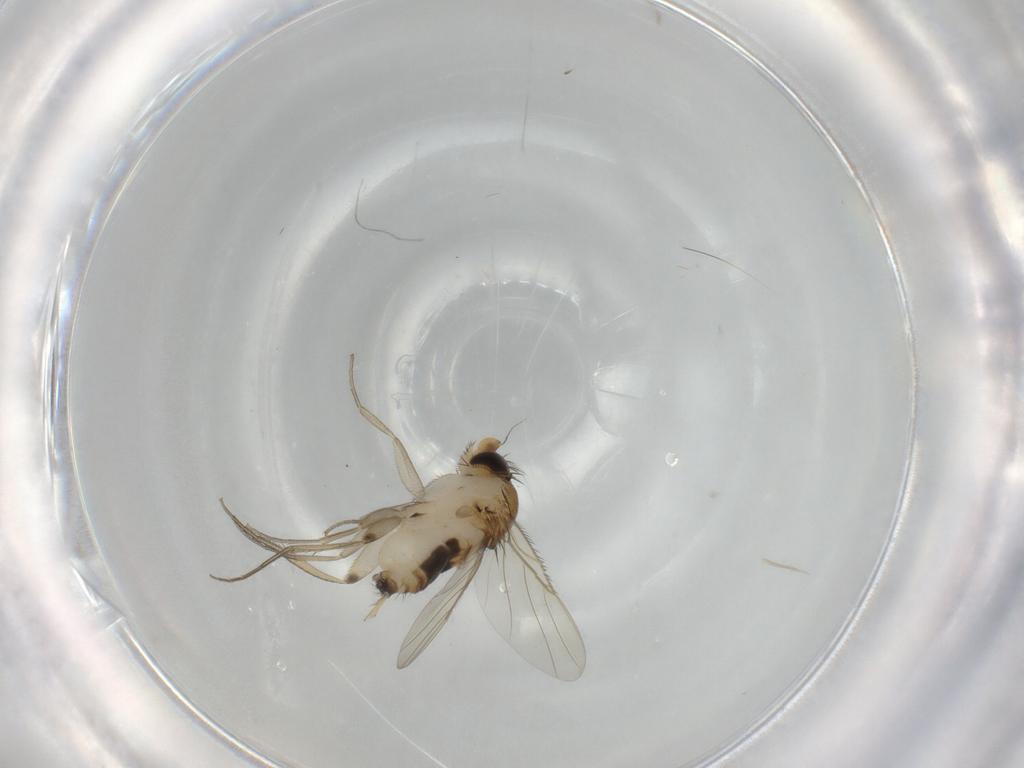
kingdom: Animalia
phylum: Arthropoda
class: Insecta
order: Diptera
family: Phoridae
